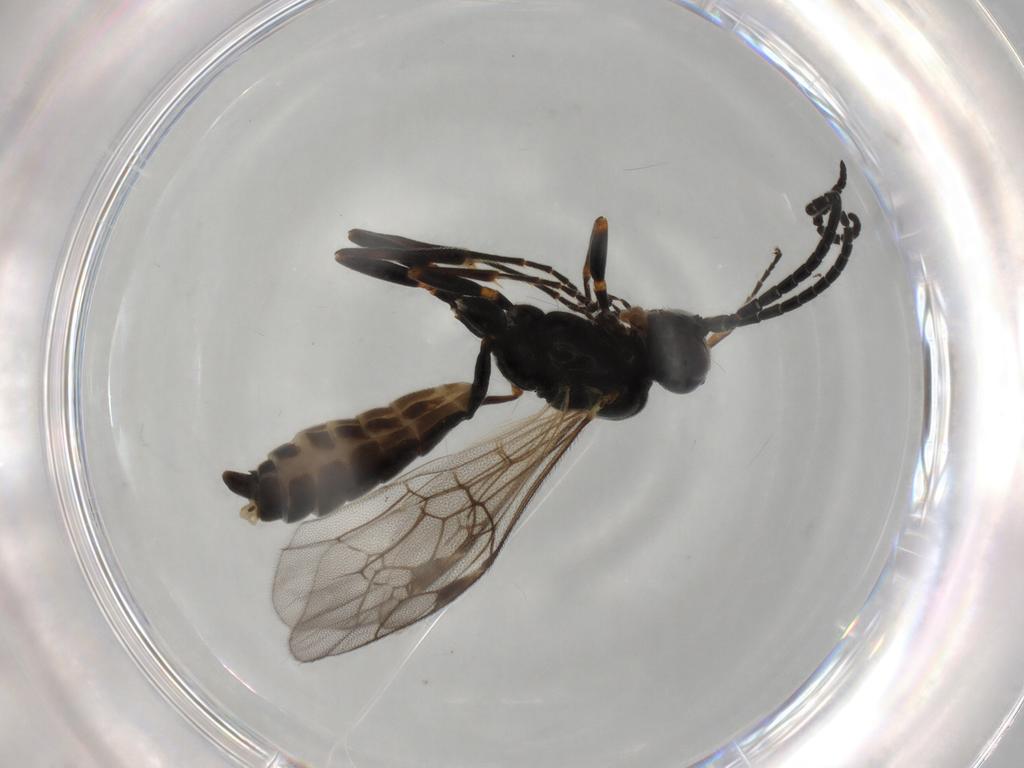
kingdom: Animalia
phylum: Arthropoda
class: Insecta
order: Hymenoptera
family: Ichneumonidae
